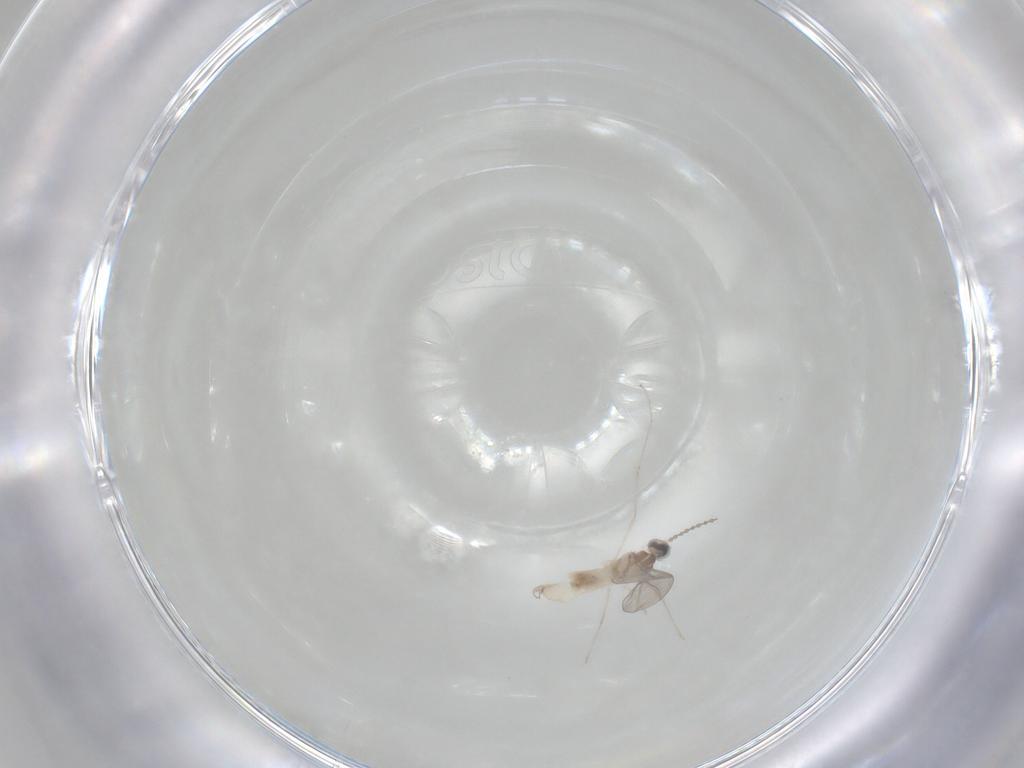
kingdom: Animalia
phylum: Arthropoda
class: Insecta
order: Diptera
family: Cecidomyiidae
